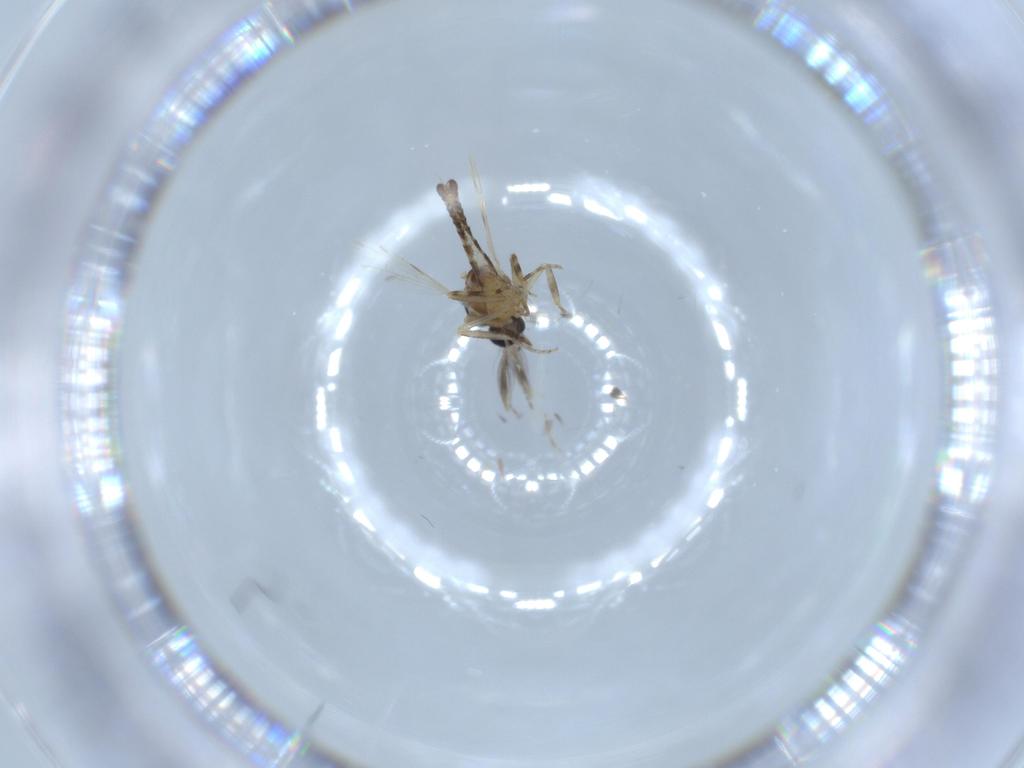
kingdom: Animalia
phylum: Arthropoda
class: Insecta
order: Diptera
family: Ceratopogonidae
